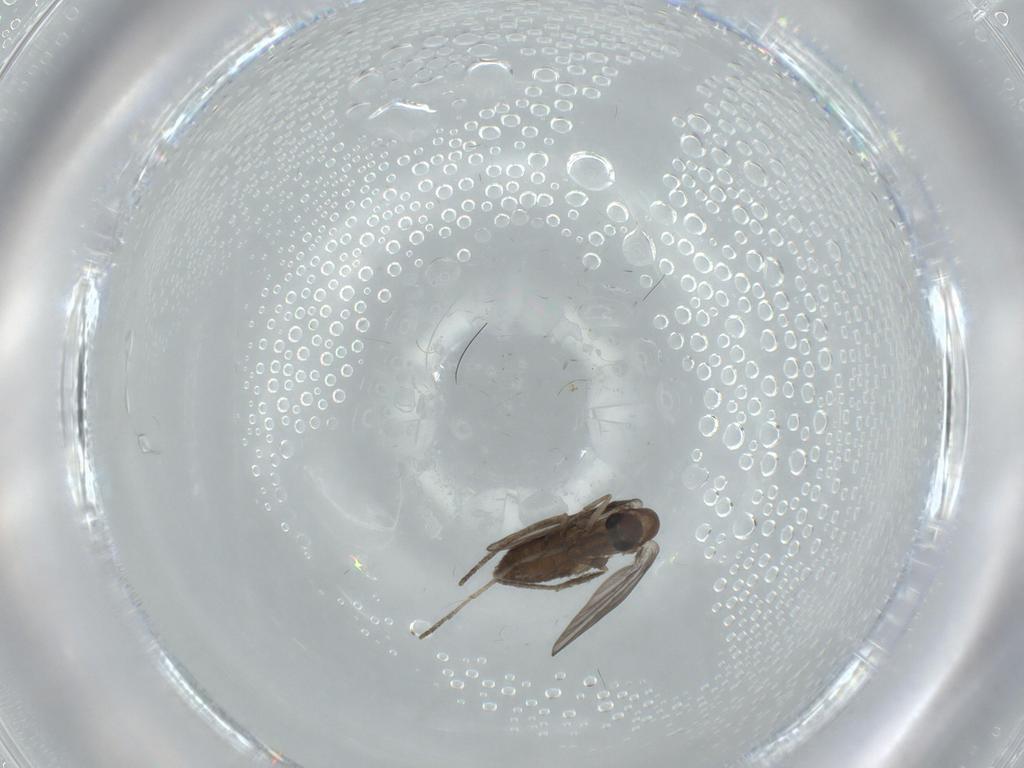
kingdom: Animalia
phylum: Arthropoda
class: Insecta
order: Diptera
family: Psychodidae
